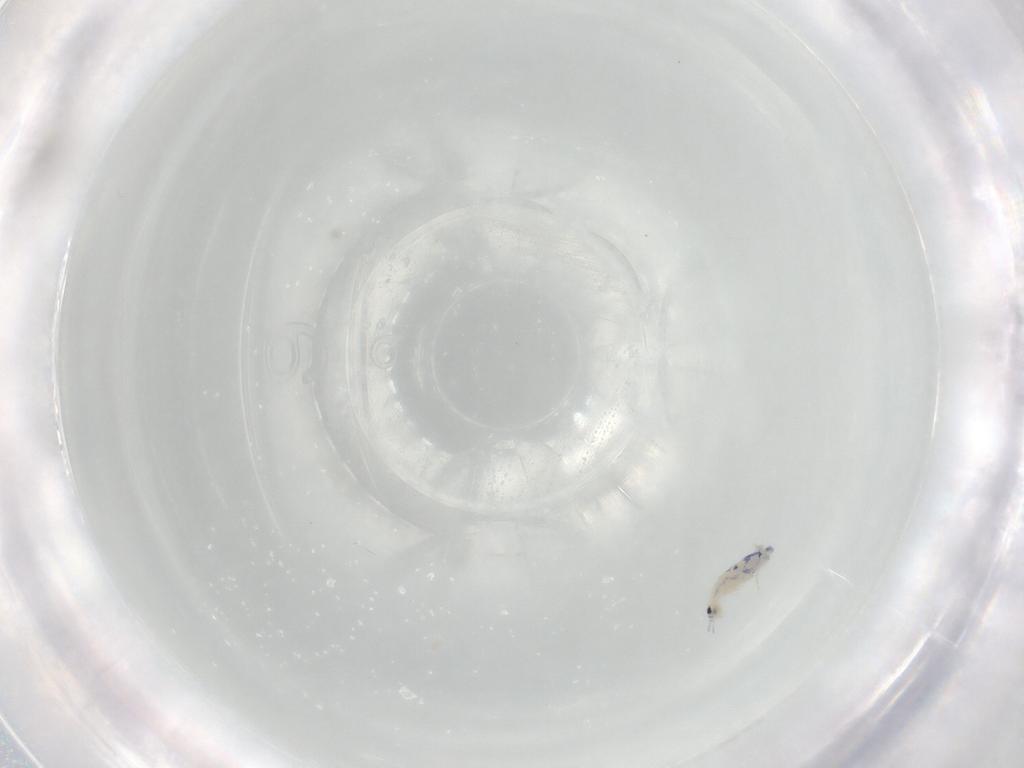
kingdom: Animalia
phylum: Arthropoda
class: Collembola
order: Entomobryomorpha
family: Entomobryidae
